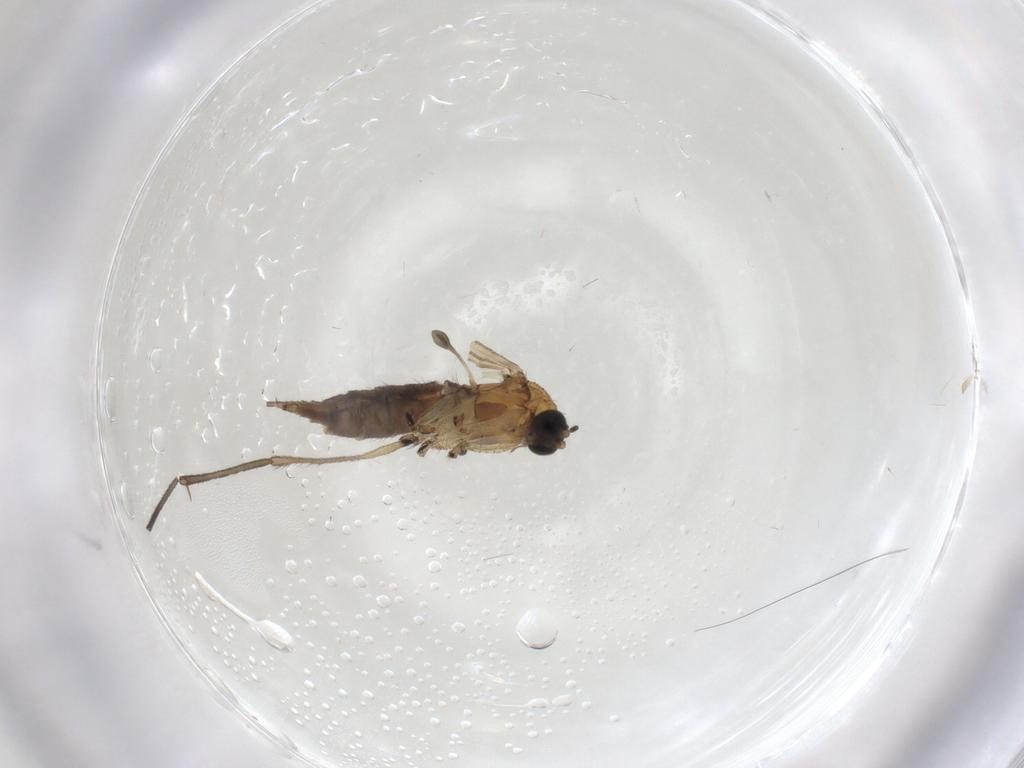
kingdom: Animalia
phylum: Arthropoda
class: Insecta
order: Diptera
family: Sciaridae
